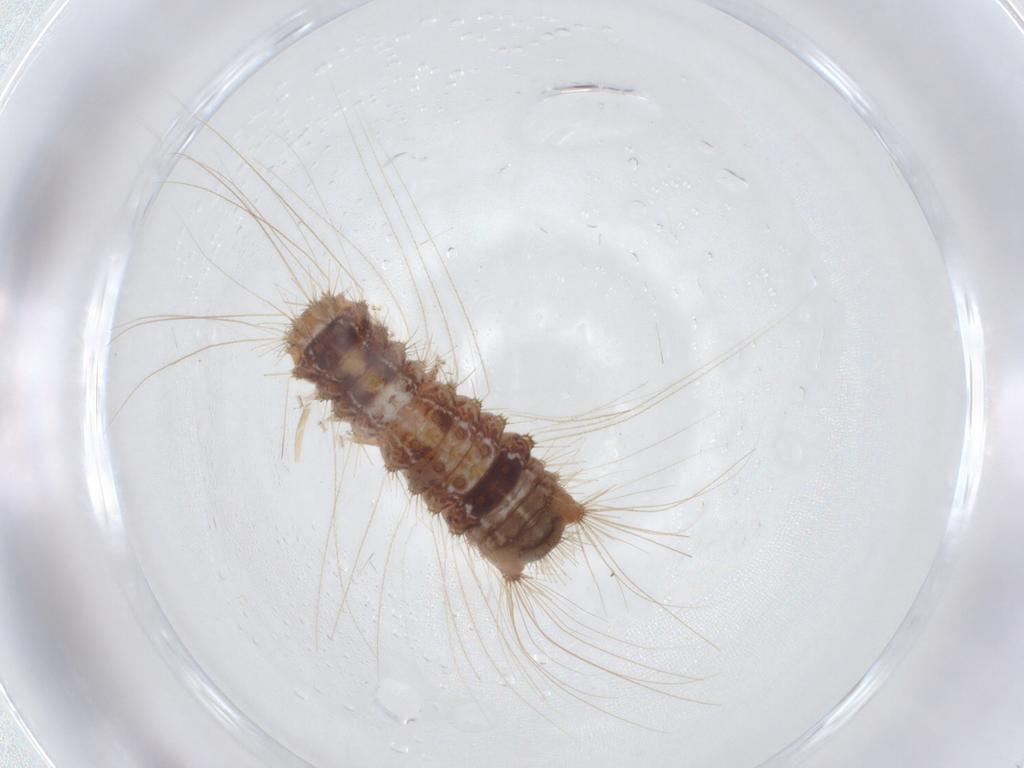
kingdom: Animalia
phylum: Arthropoda
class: Insecta
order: Lepidoptera
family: Erebidae
